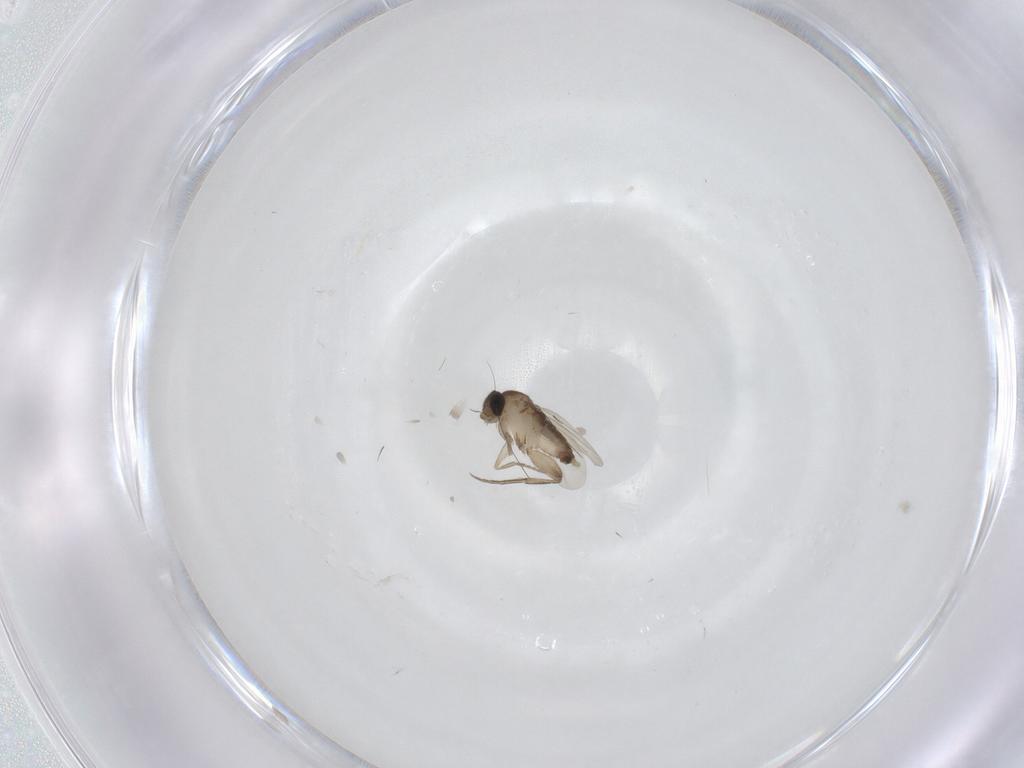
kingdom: Animalia
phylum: Arthropoda
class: Insecta
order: Diptera
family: Phoridae
